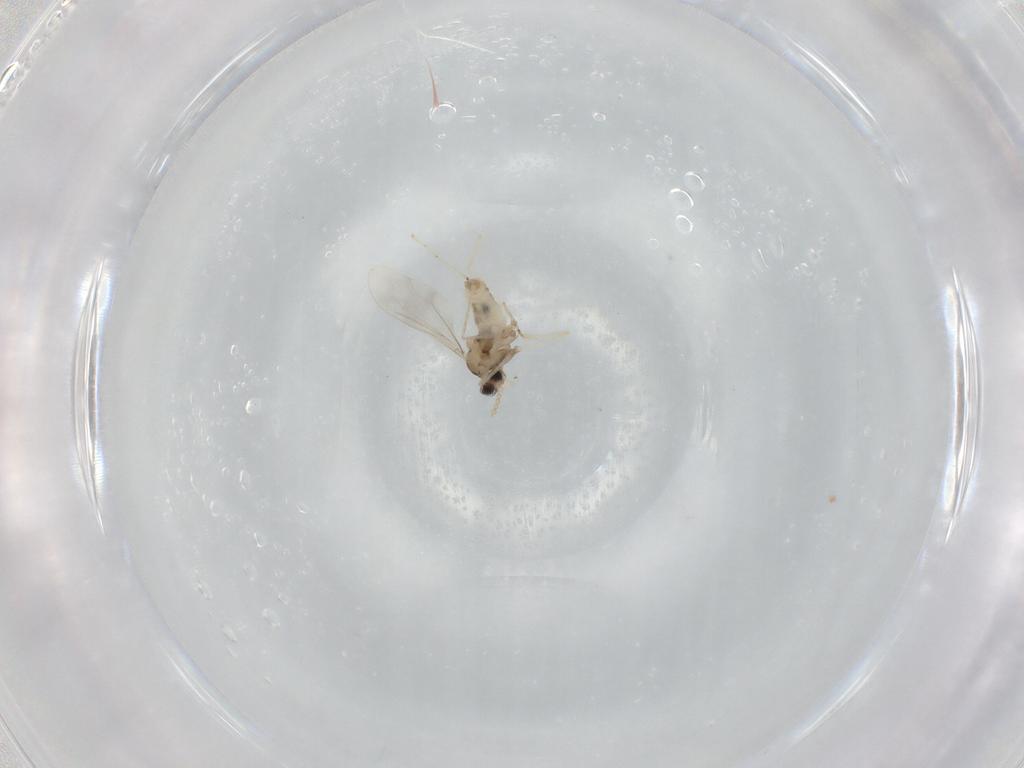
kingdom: Animalia
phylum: Arthropoda
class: Insecta
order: Diptera
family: Cecidomyiidae
